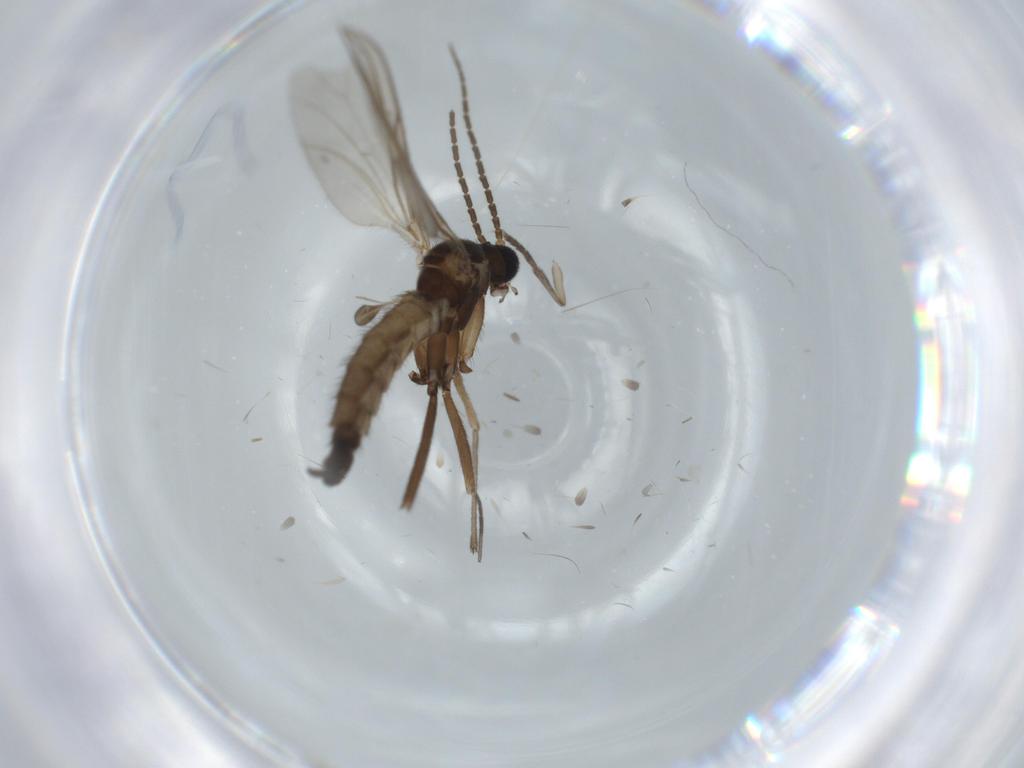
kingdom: Animalia
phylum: Arthropoda
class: Insecta
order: Diptera
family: Sciaridae
